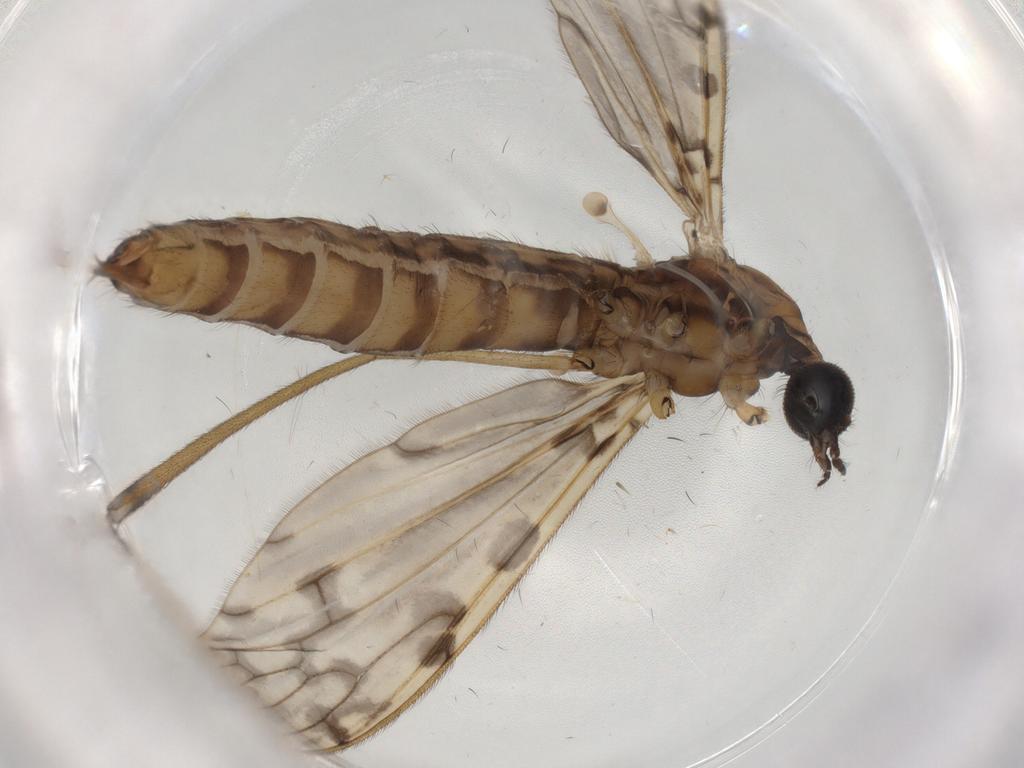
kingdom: Animalia
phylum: Arthropoda
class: Insecta
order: Diptera
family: Limoniidae
